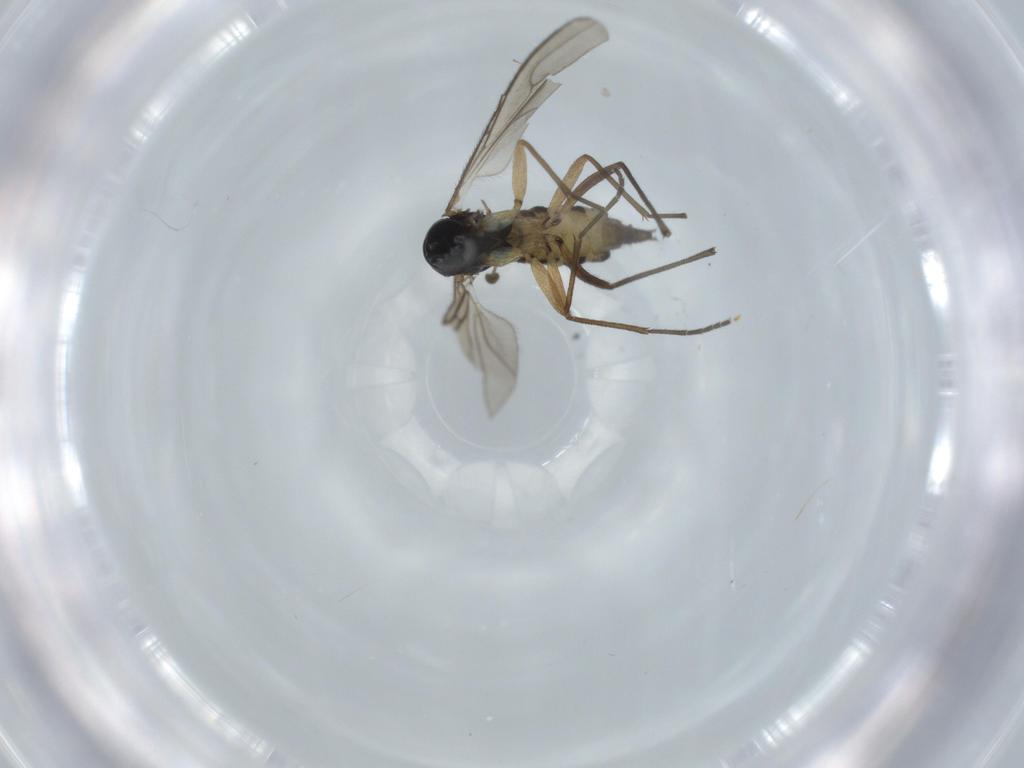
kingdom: Animalia
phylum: Arthropoda
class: Insecta
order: Diptera
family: Sciaridae
